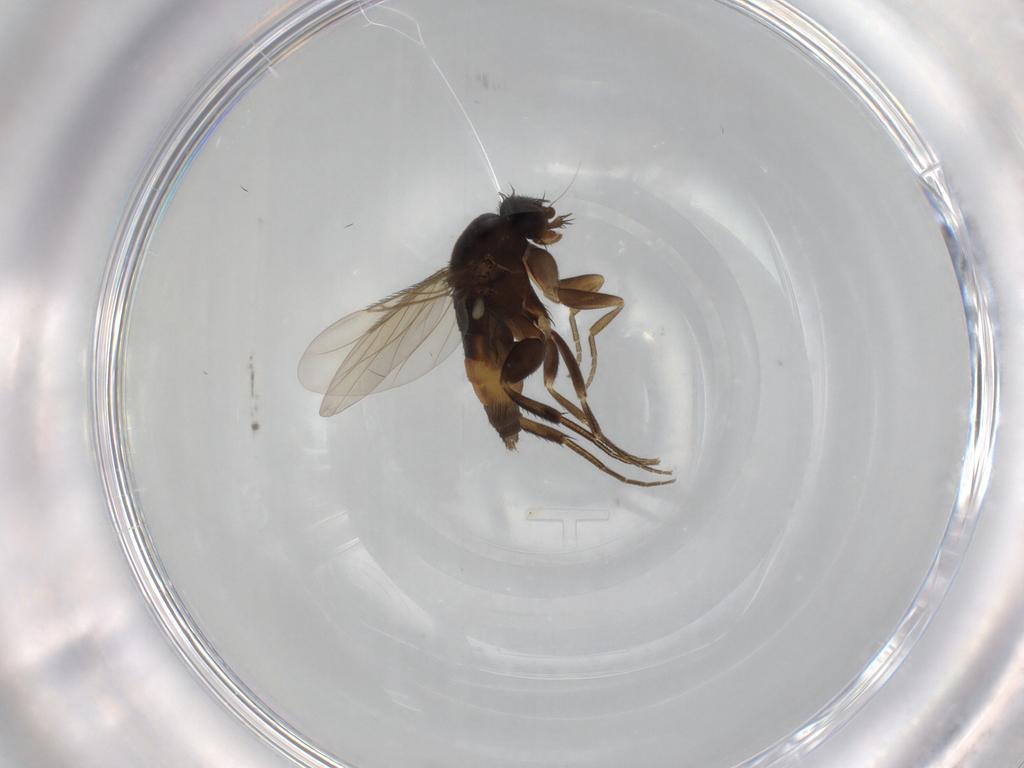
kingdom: Animalia
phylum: Arthropoda
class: Insecta
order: Diptera
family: Phoridae
